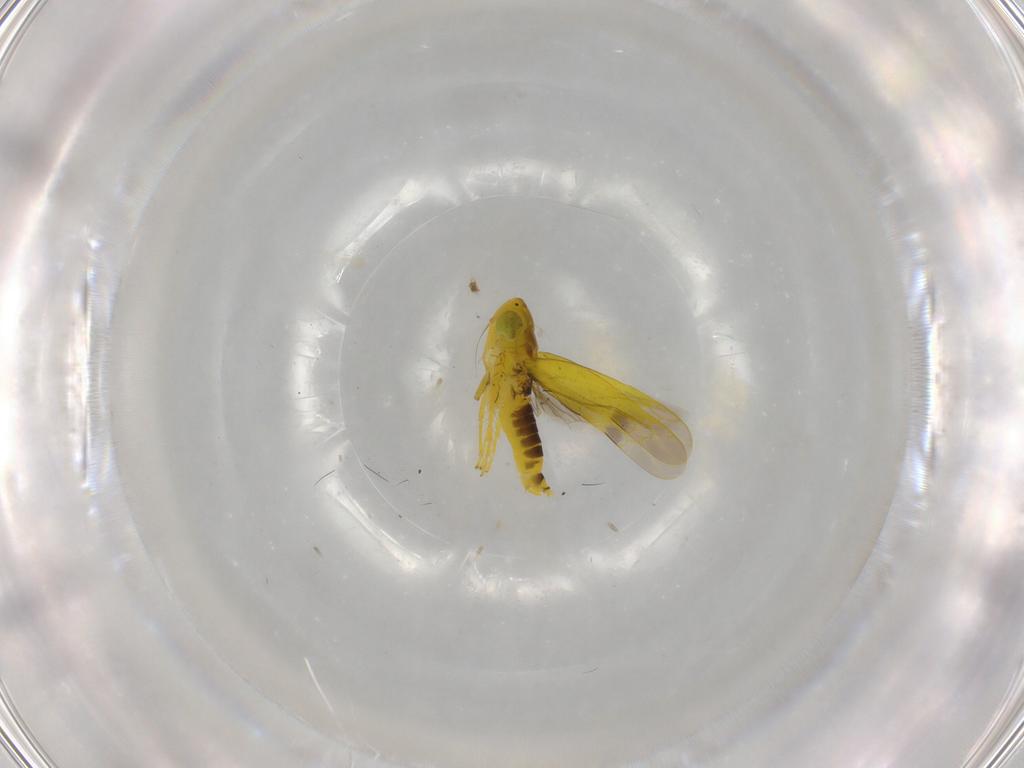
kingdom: Animalia
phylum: Arthropoda
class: Insecta
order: Hemiptera
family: Cicadellidae
